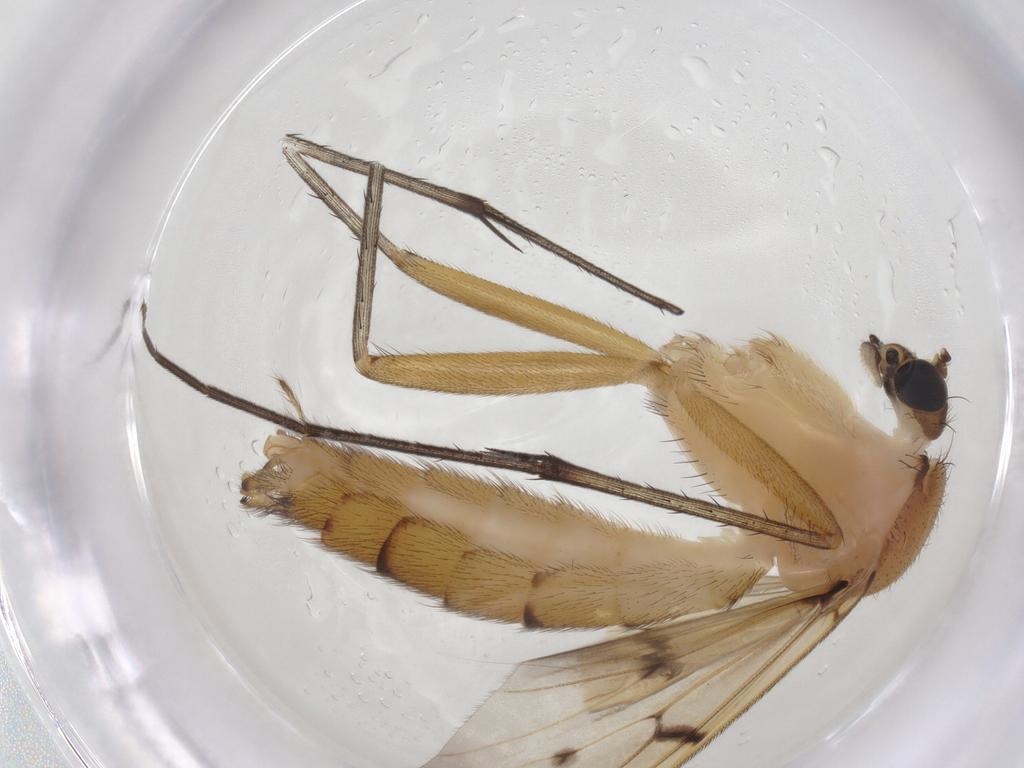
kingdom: Animalia
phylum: Arthropoda
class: Insecta
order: Diptera
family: Mycetophilidae
